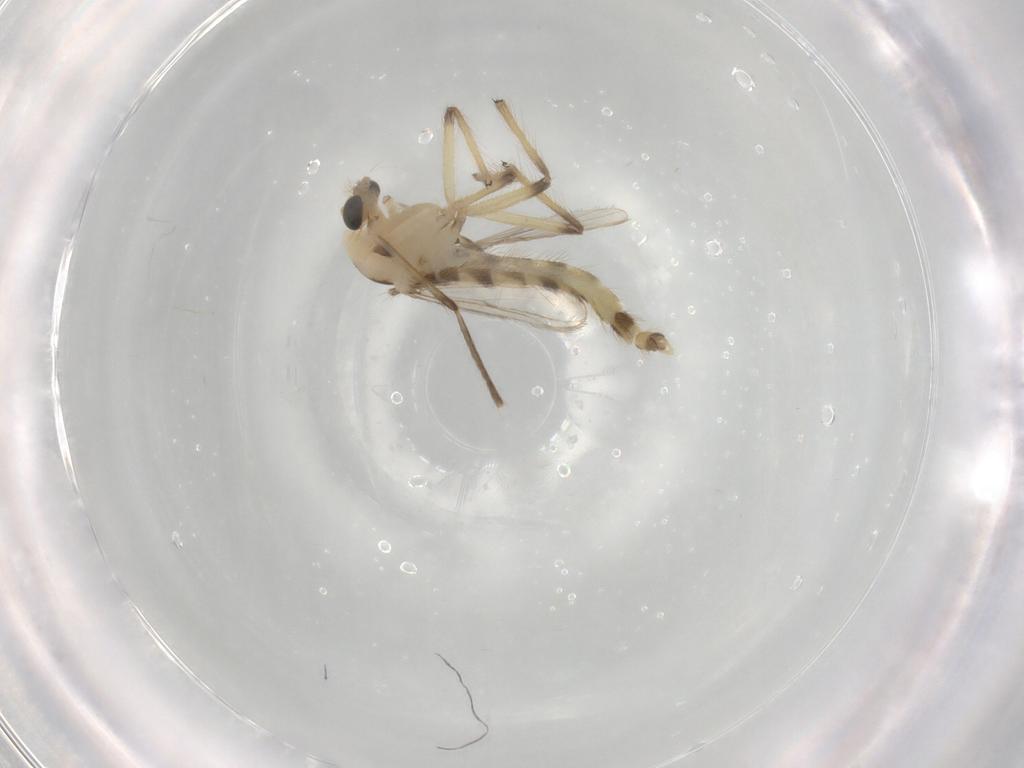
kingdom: Animalia
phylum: Arthropoda
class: Insecta
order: Diptera
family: Chironomidae
